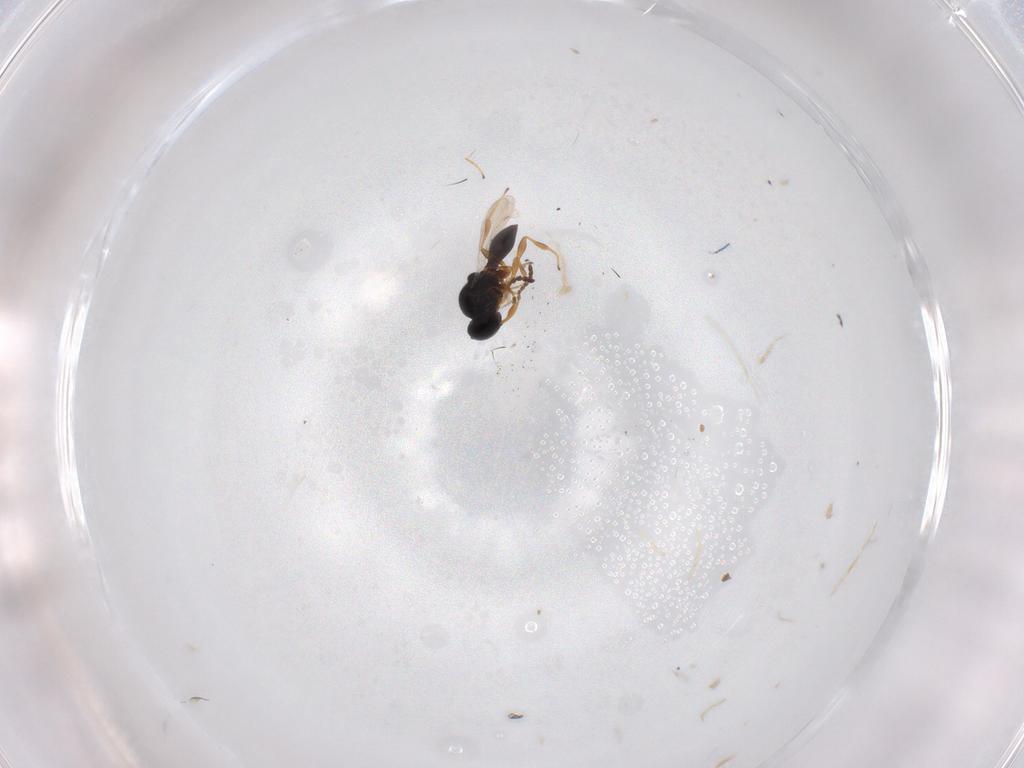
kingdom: Animalia
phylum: Arthropoda
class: Insecta
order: Hymenoptera
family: Platygastridae
